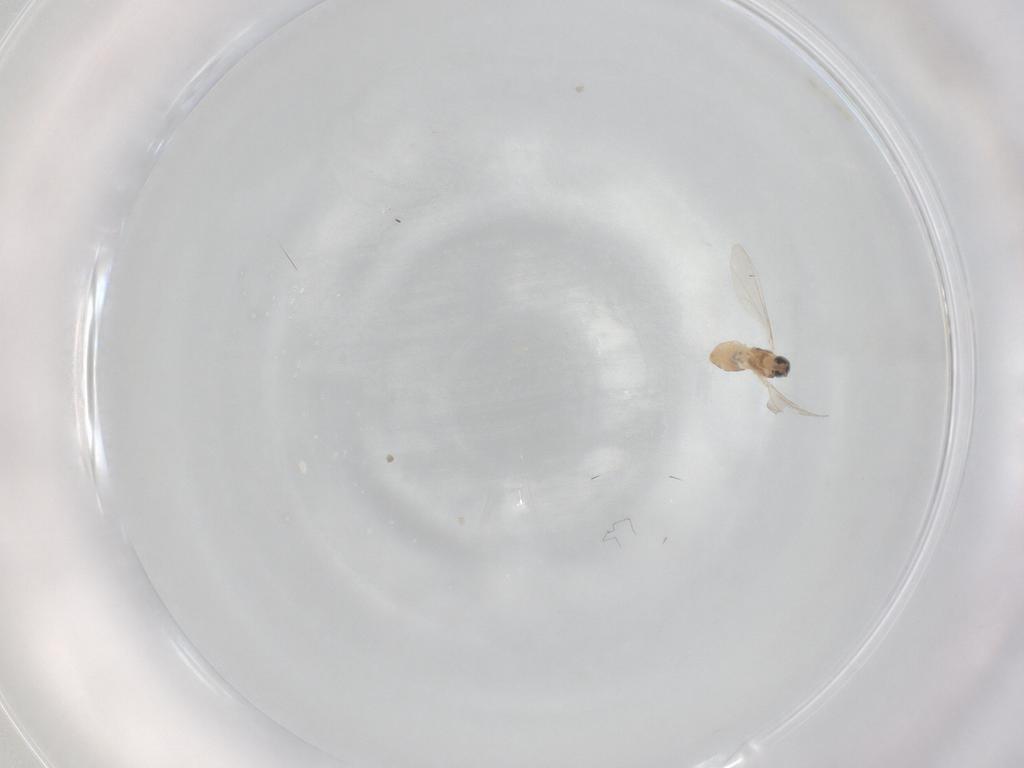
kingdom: Animalia
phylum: Arthropoda
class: Insecta
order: Diptera
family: Cecidomyiidae
